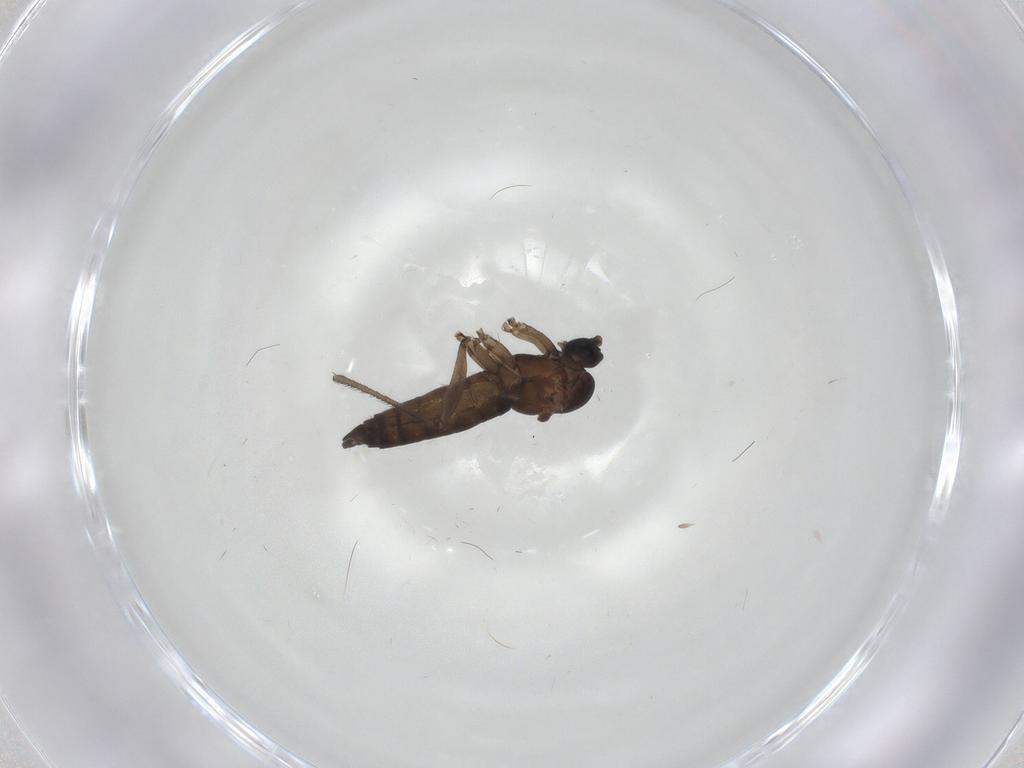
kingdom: Animalia
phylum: Arthropoda
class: Insecta
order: Diptera
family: Sciaridae
